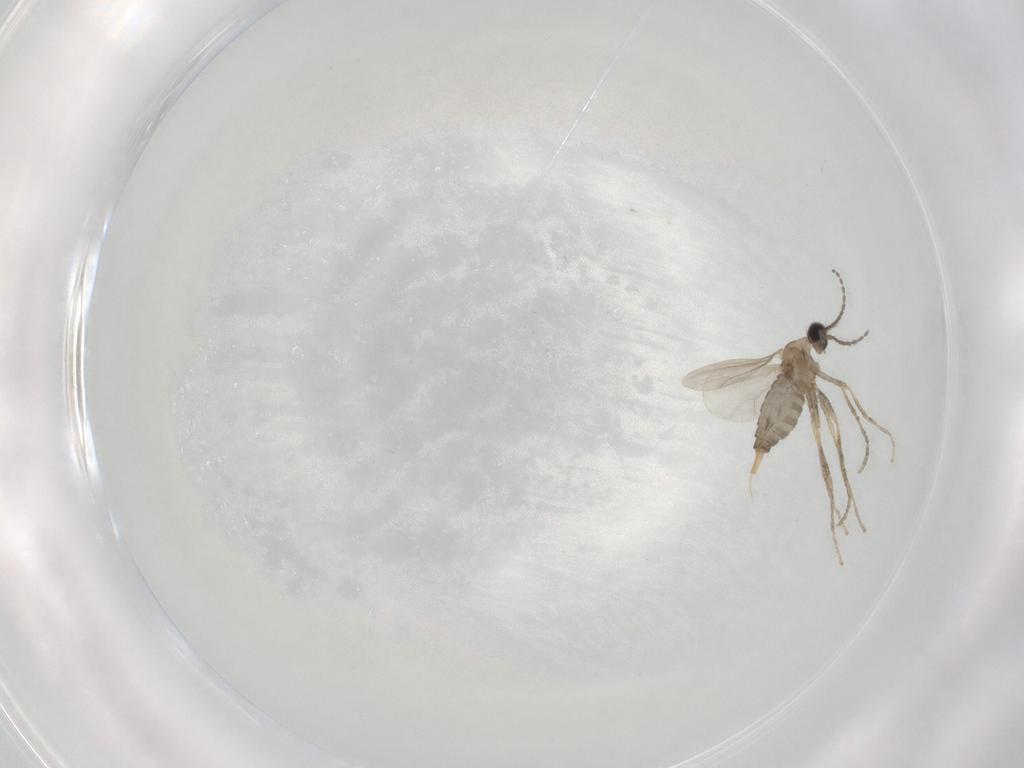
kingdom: Animalia
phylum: Arthropoda
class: Insecta
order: Diptera
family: Cecidomyiidae
